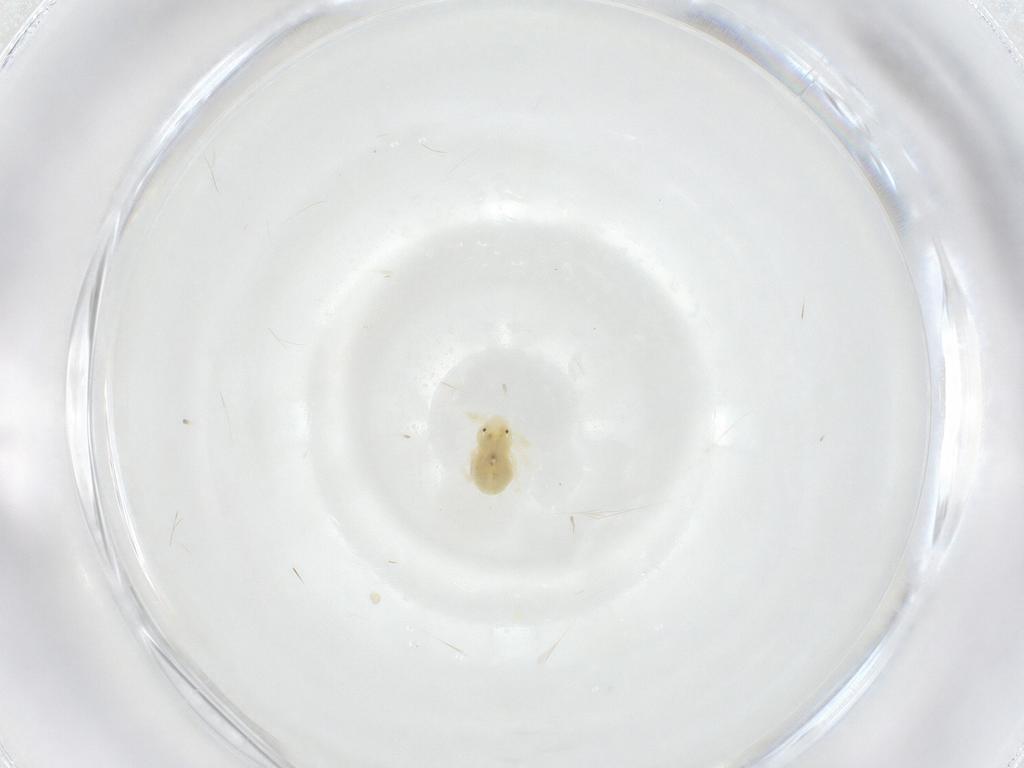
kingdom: Animalia
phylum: Arthropoda
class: Arachnida
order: Trombidiformes
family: Anystidae
